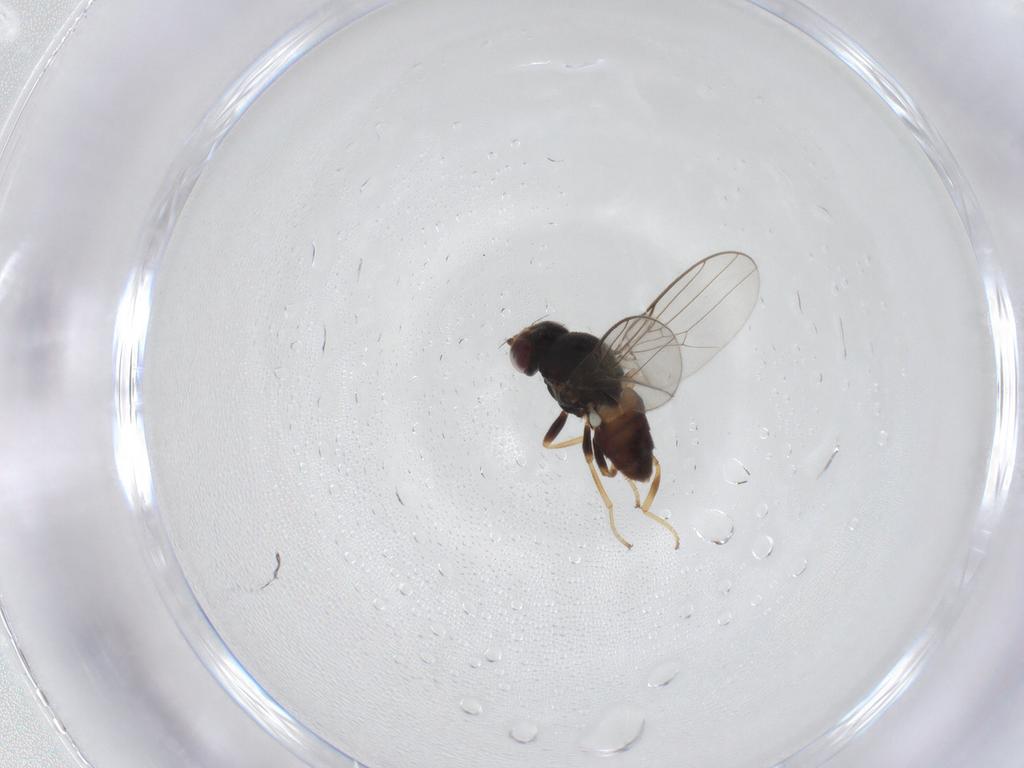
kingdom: Animalia
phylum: Arthropoda
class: Insecta
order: Diptera
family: Chloropidae
